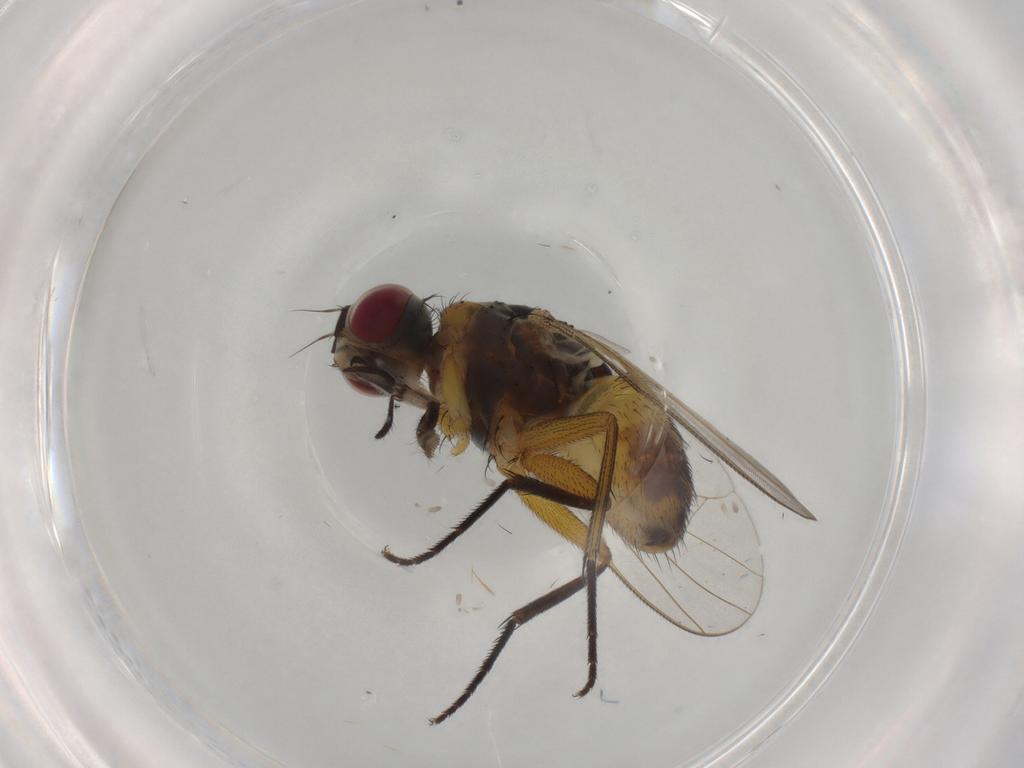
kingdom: Animalia
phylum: Arthropoda
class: Insecta
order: Diptera
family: Muscidae
